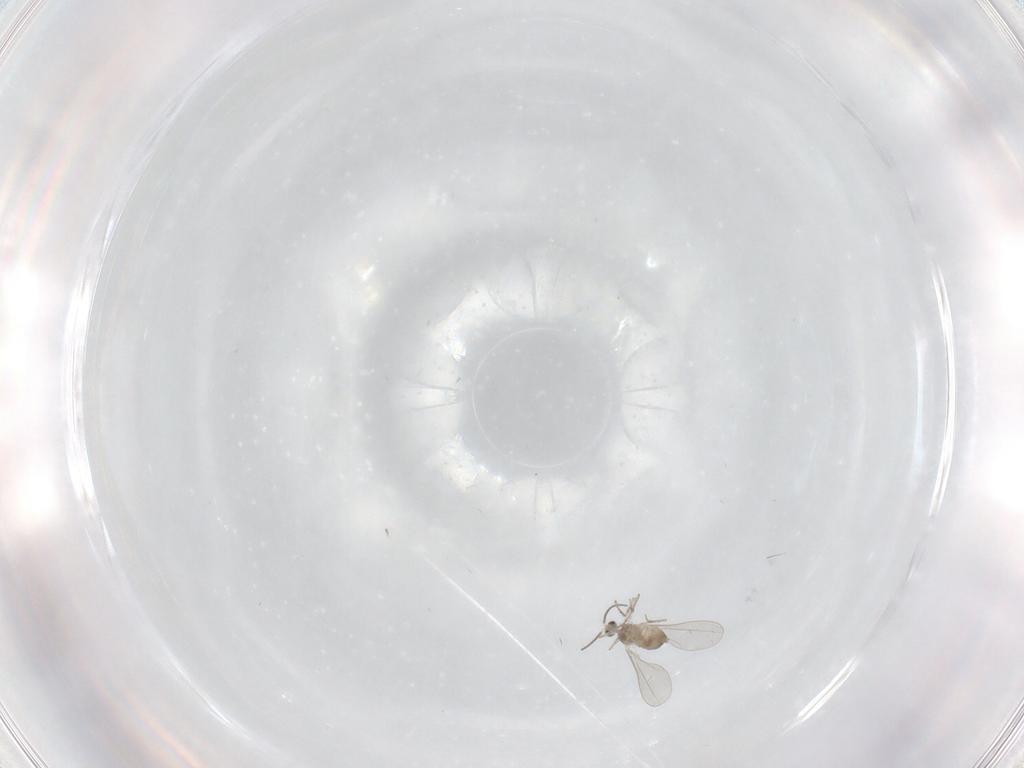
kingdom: Animalia
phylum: Arthropoda
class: Insecta
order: Diptera
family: Cecidomyiidae
